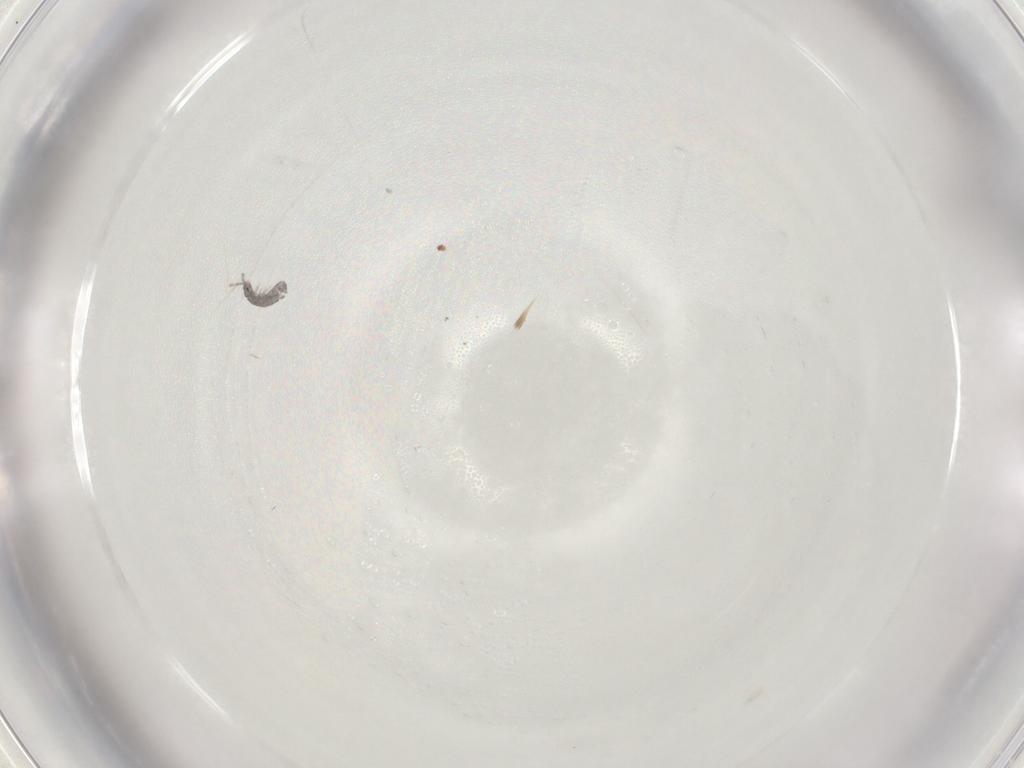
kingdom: Animalia
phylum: Arthropoda
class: Collembola
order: Entomobryomorpha
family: Isotomidae
